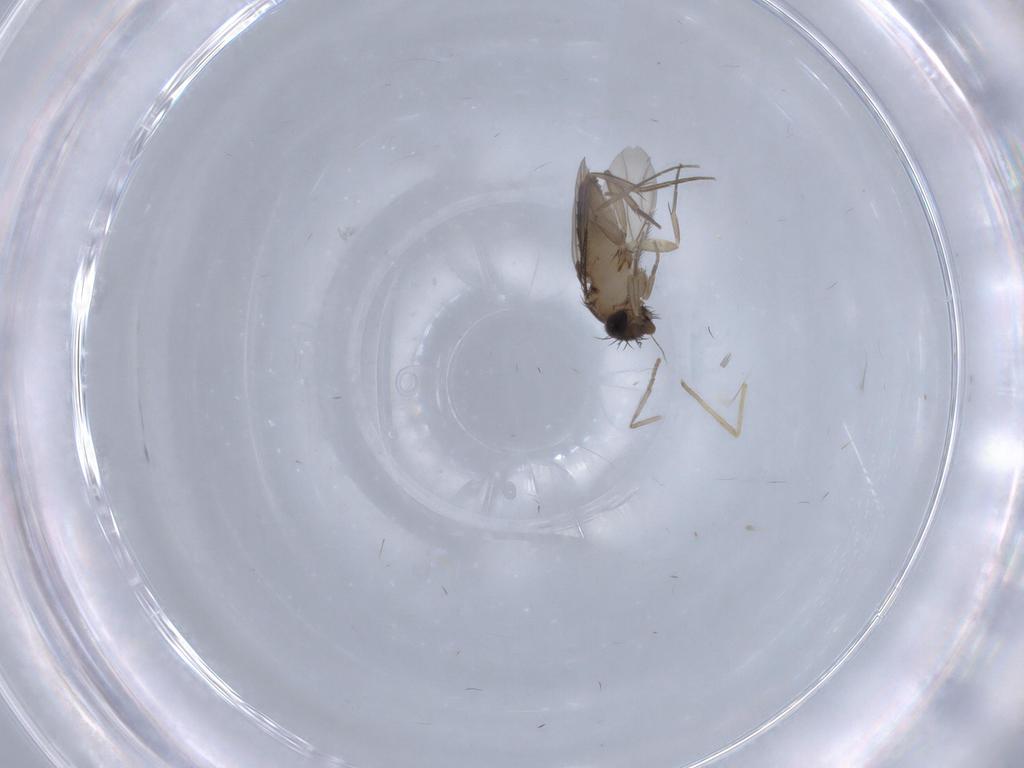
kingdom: Animalia
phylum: Arthropoda
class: Insecta
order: Diptera
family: Phoridae
